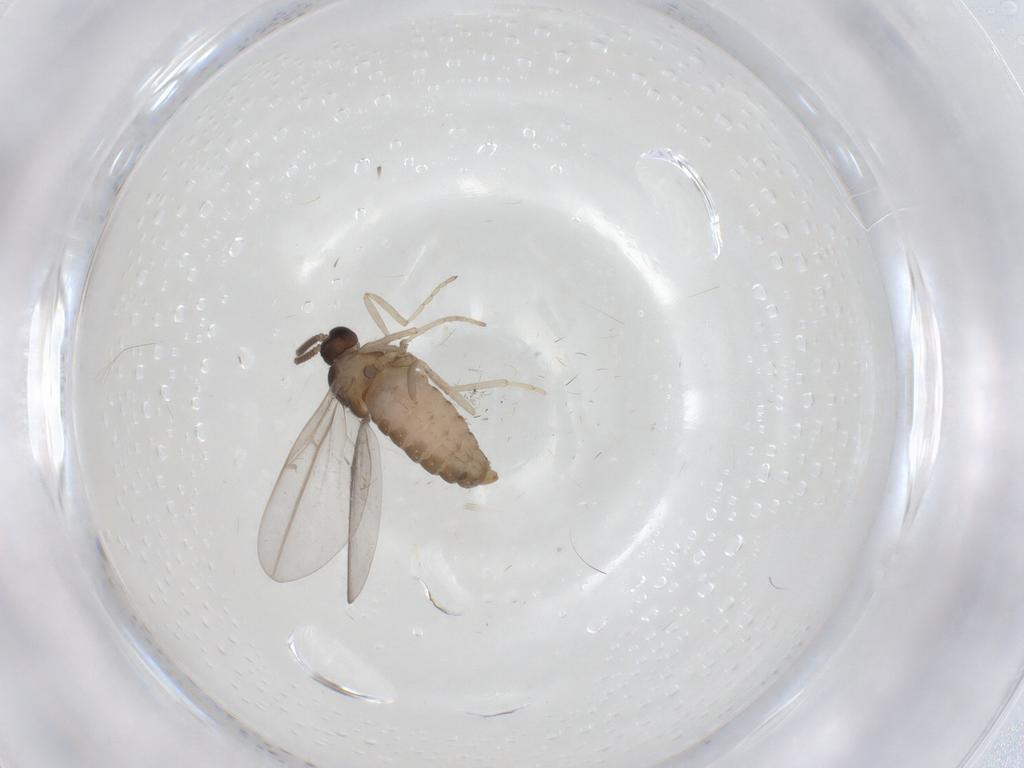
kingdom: Animalia
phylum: Arthropoda
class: Insecta
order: Diptera
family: Cecidomyiidae
